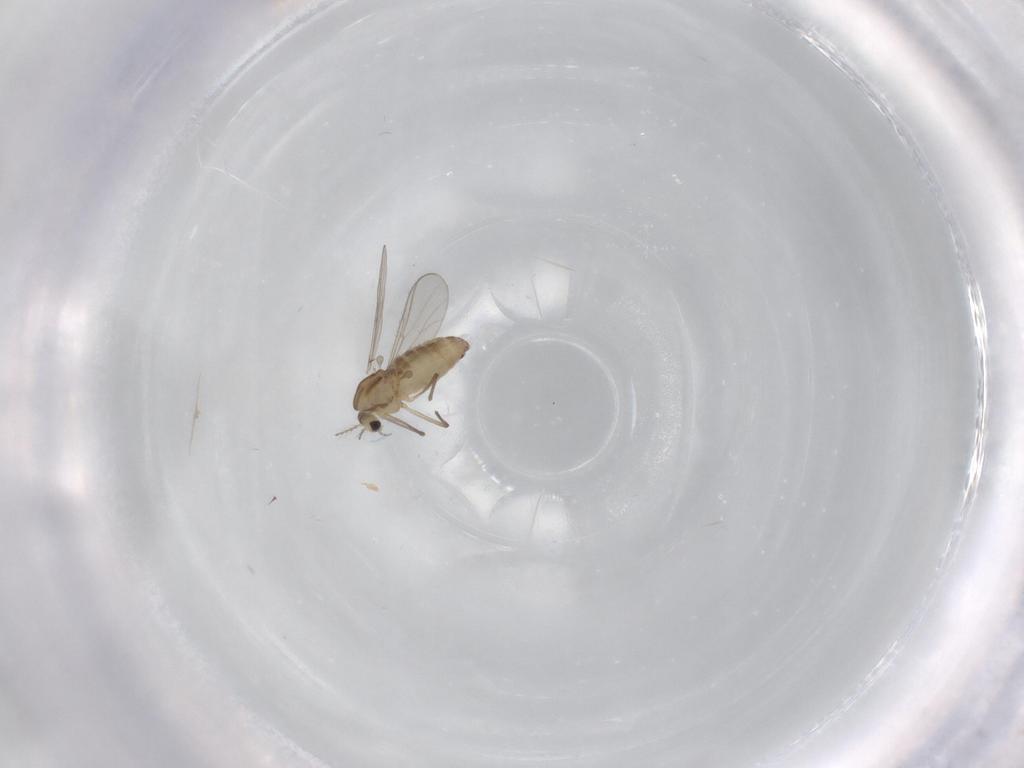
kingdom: Animalia
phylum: Arthropoda
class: Insecta
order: Diptera
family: Chironomidae
